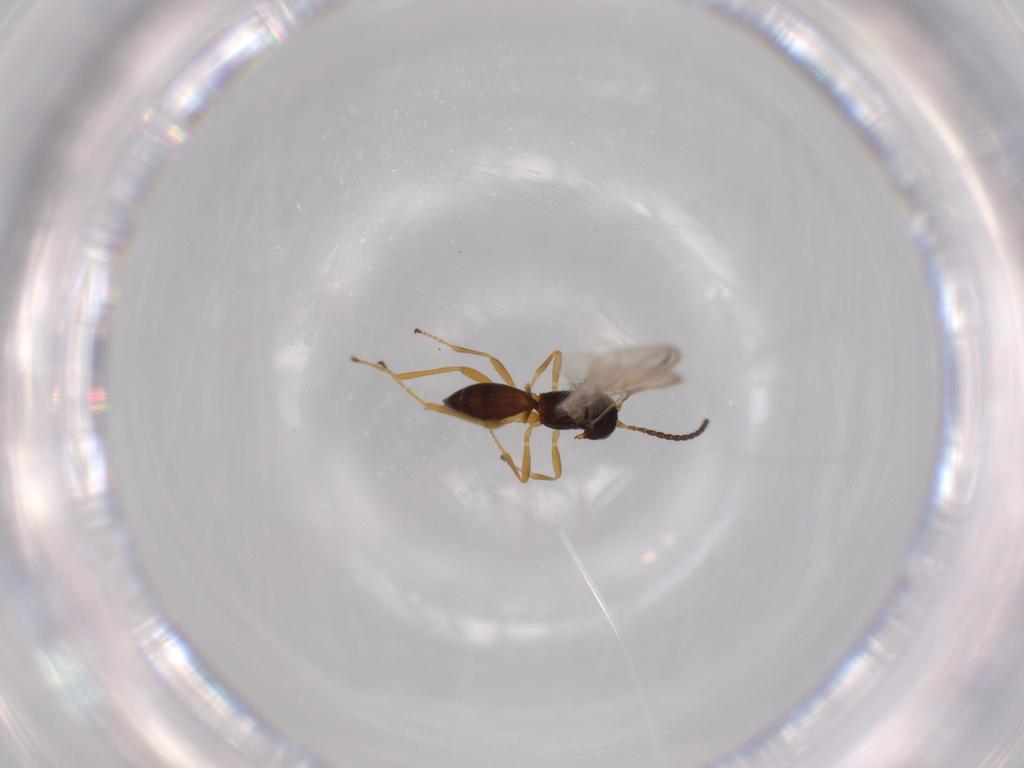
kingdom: Animalia
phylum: Arthropoda
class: Insecta
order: Hymenoptera
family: Braconidae
